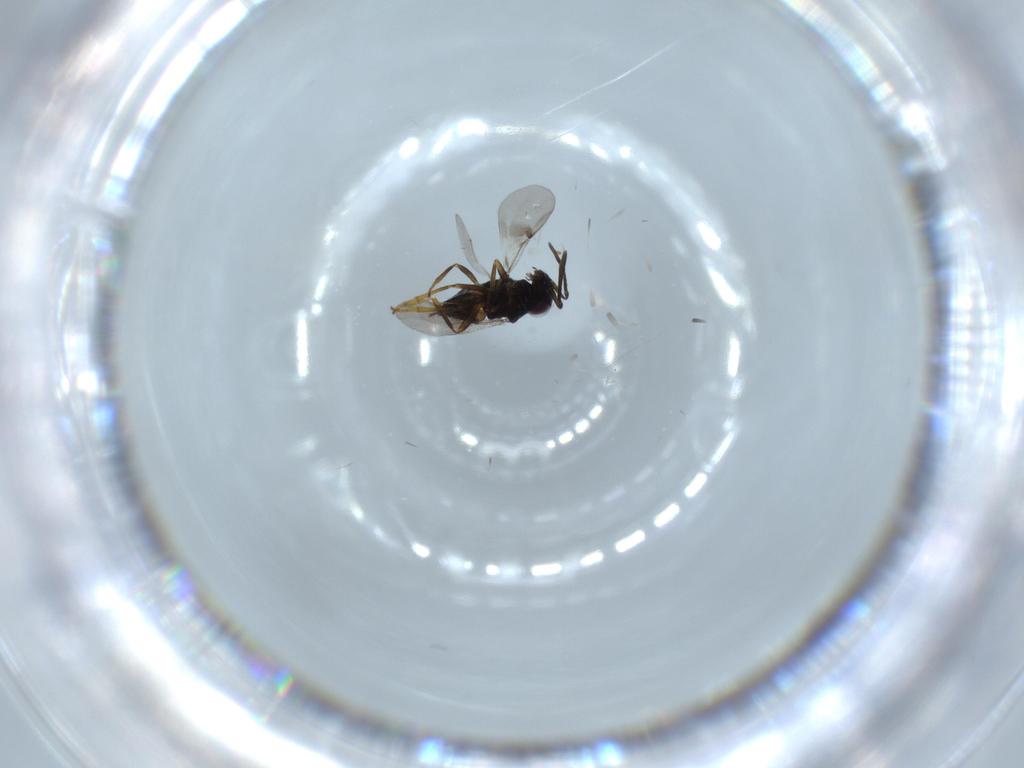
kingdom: Animalia
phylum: Arthropoda
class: Insecta
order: Hymenoptera
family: Encyrtidae
